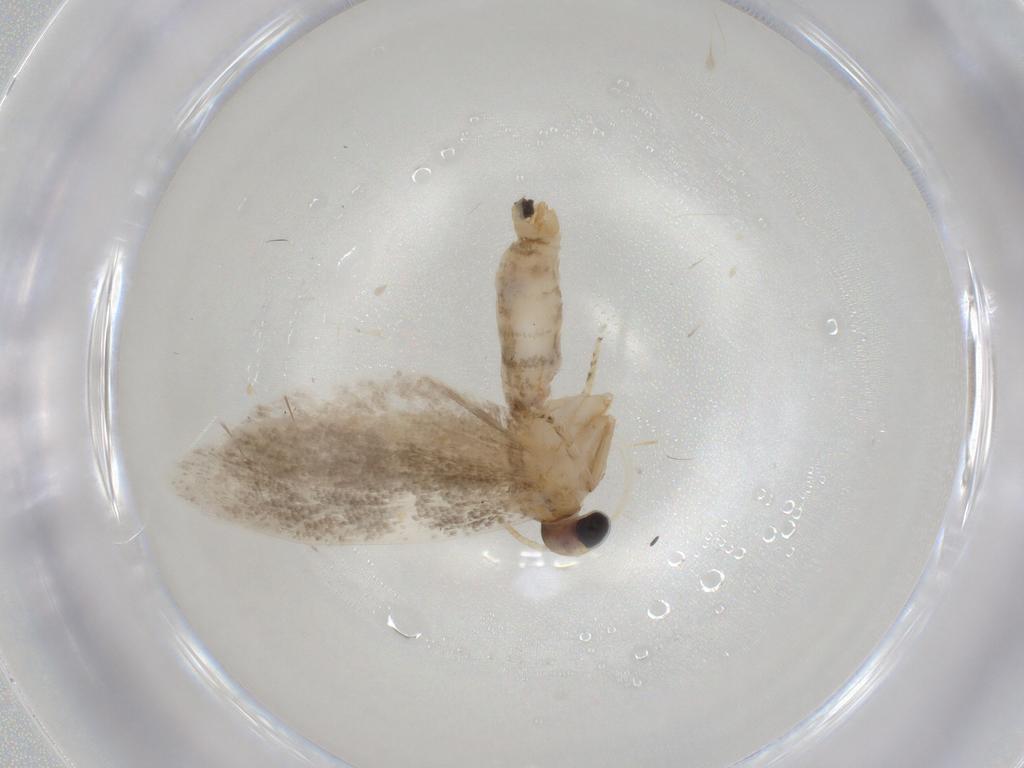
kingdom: Animalia
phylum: Arthropoda
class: Insecta
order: Lepidoptera
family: Oecophoridae
